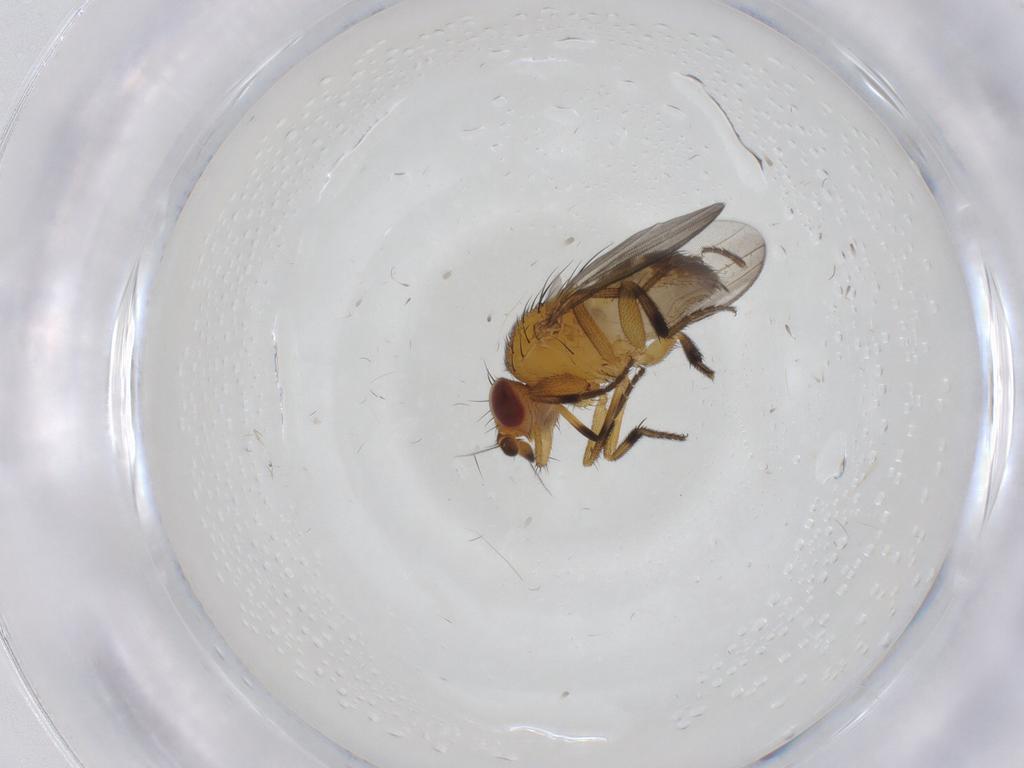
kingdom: Animalia
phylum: Arthropoda
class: Insecta
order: Diptera
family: Milichiidae
